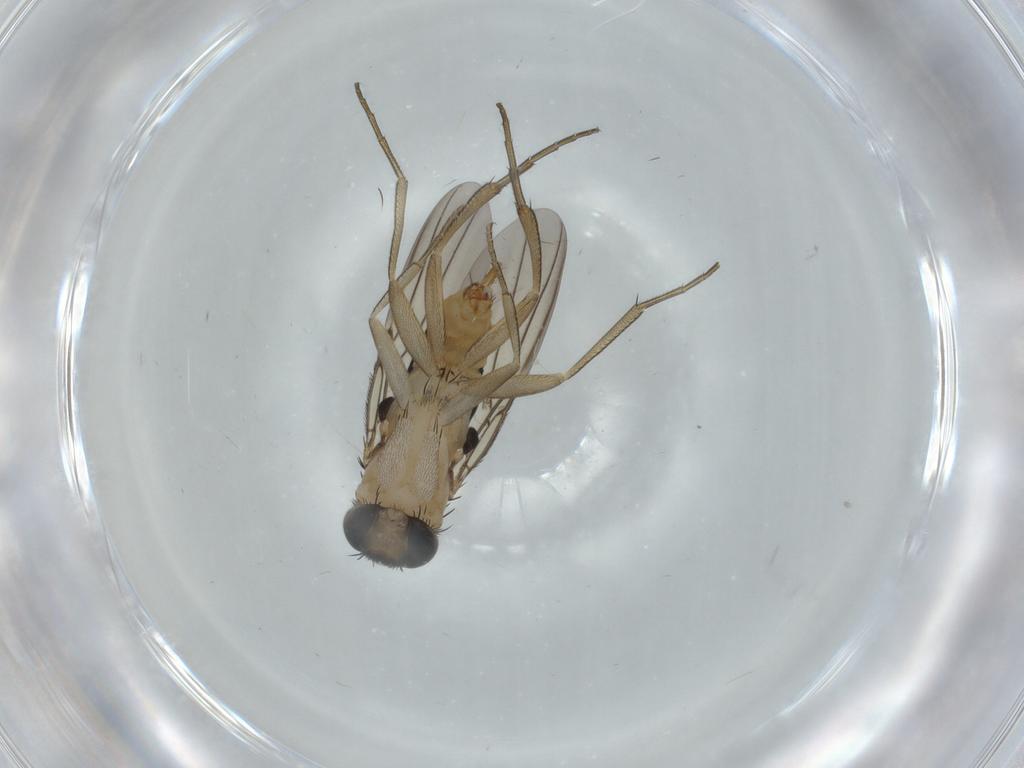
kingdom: Animalia
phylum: Arthropoda
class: Insecta
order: Diptera
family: Phoridae
